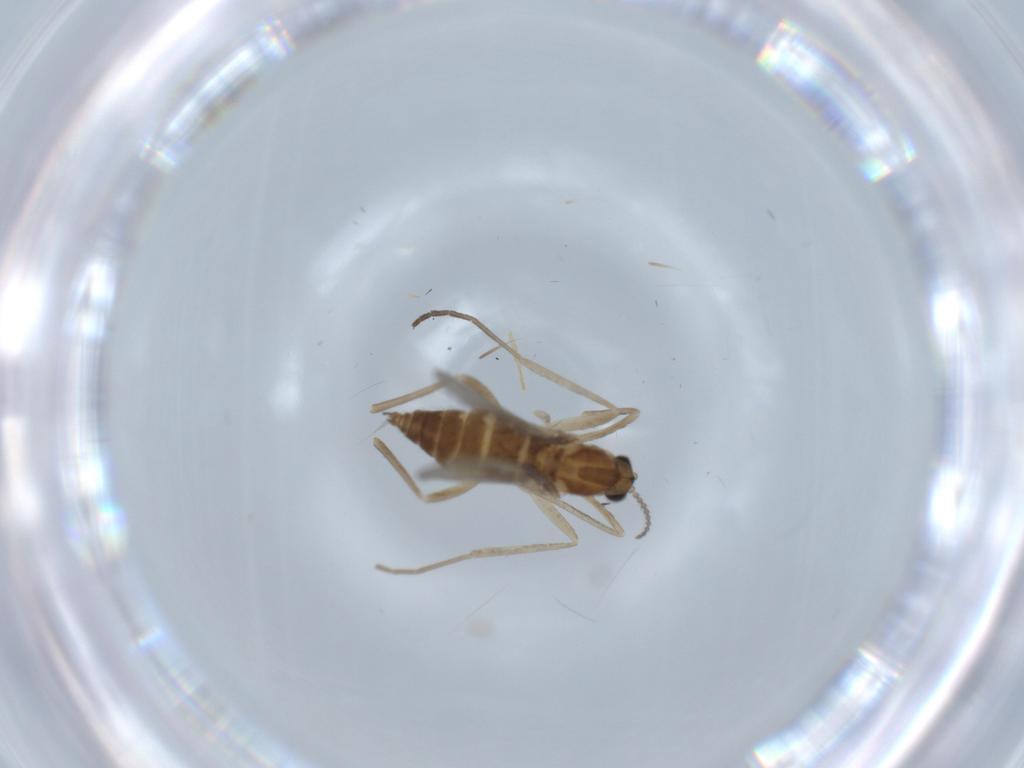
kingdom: Animalia
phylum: Arthropoda
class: Insecta
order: Diptera
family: Cecidomyiidae
